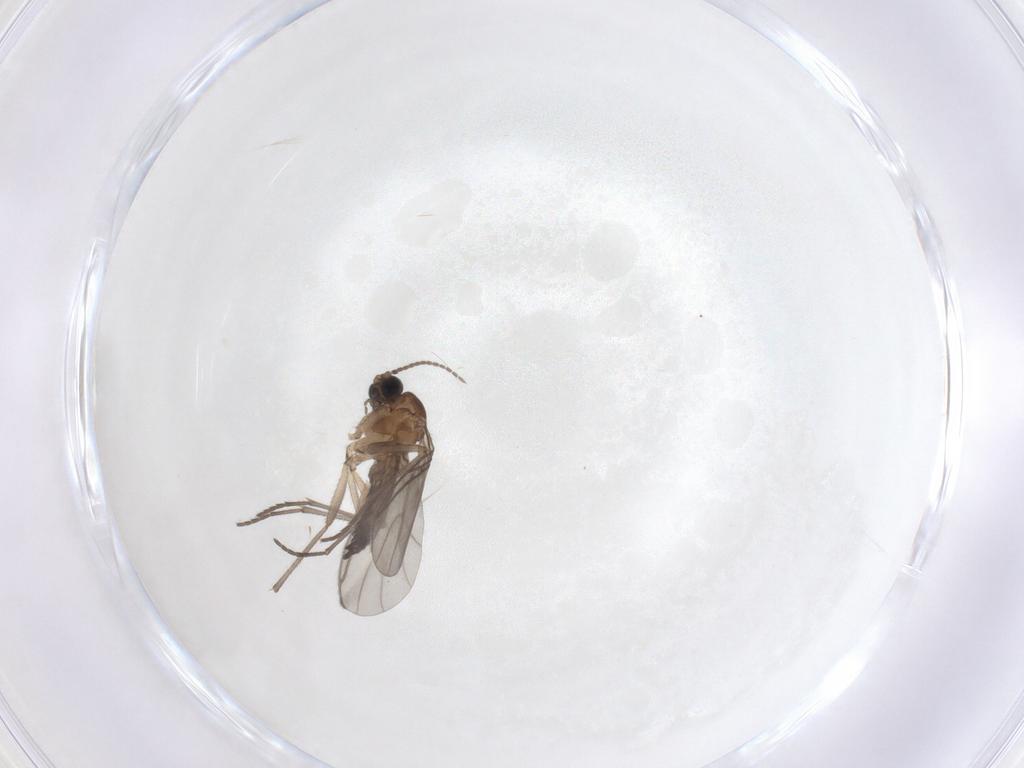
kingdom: Animalia
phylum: Arthropoda
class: Insecta
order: Diptera
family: Sciaridae
